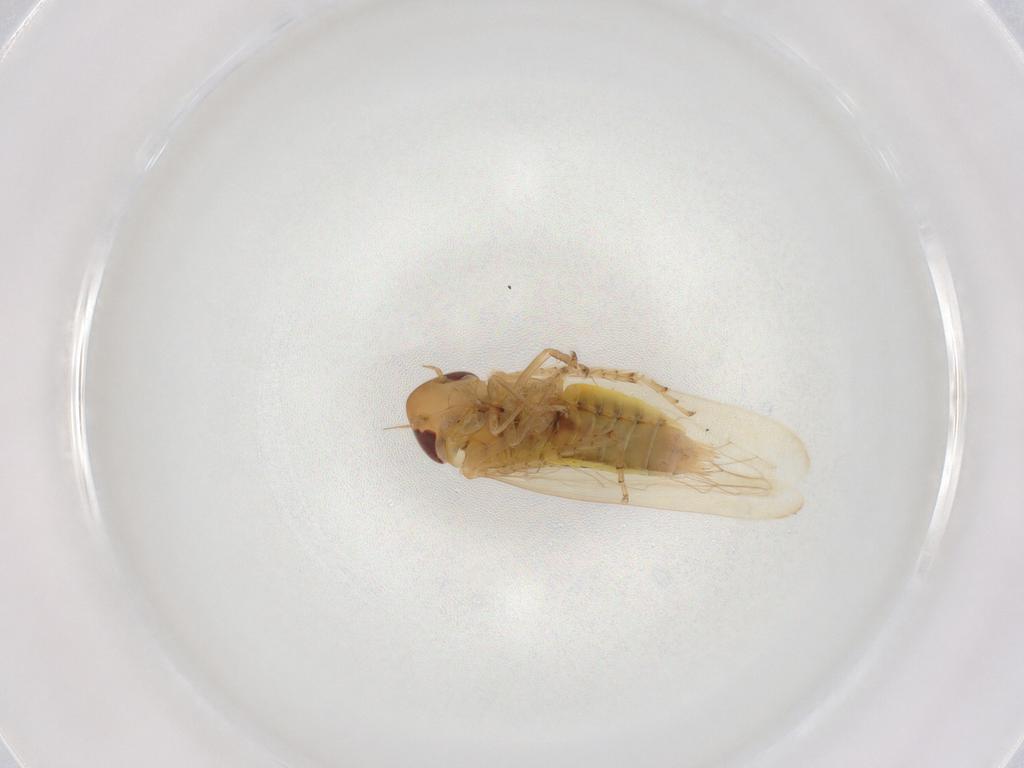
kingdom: Animalia
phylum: Arthropoda
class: Insecta
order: Hemiptera
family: Cicadellidae
